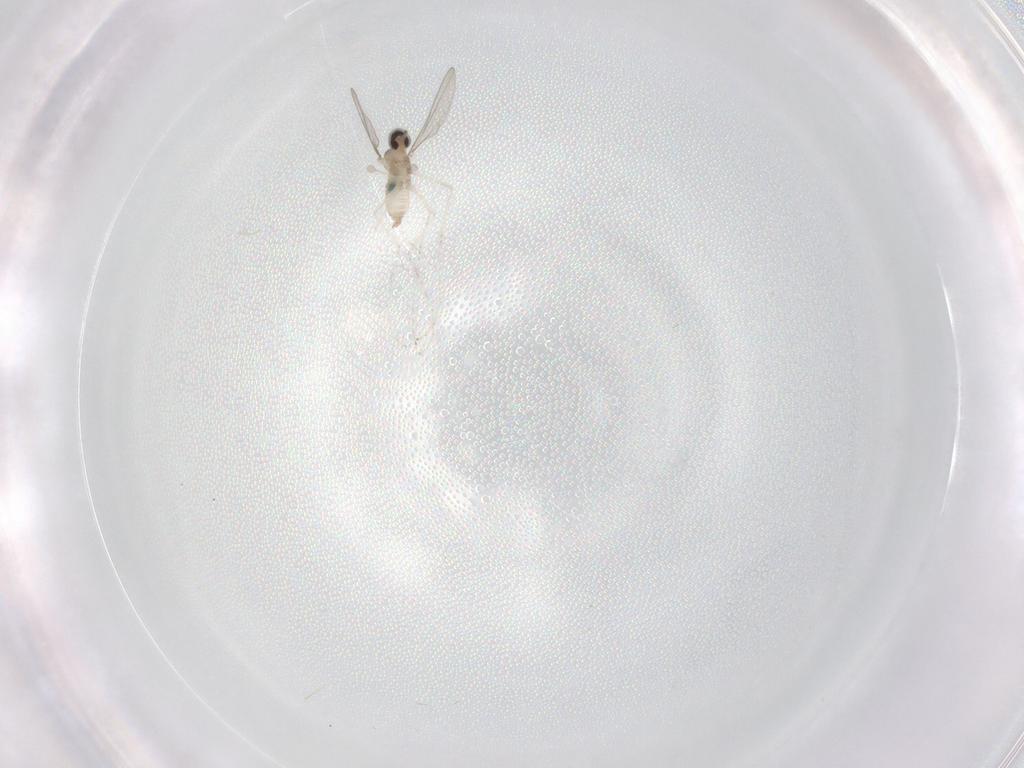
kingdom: Animalia
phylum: Arthropoda
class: Insecta
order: Diptera
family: Cecidomyiidae
